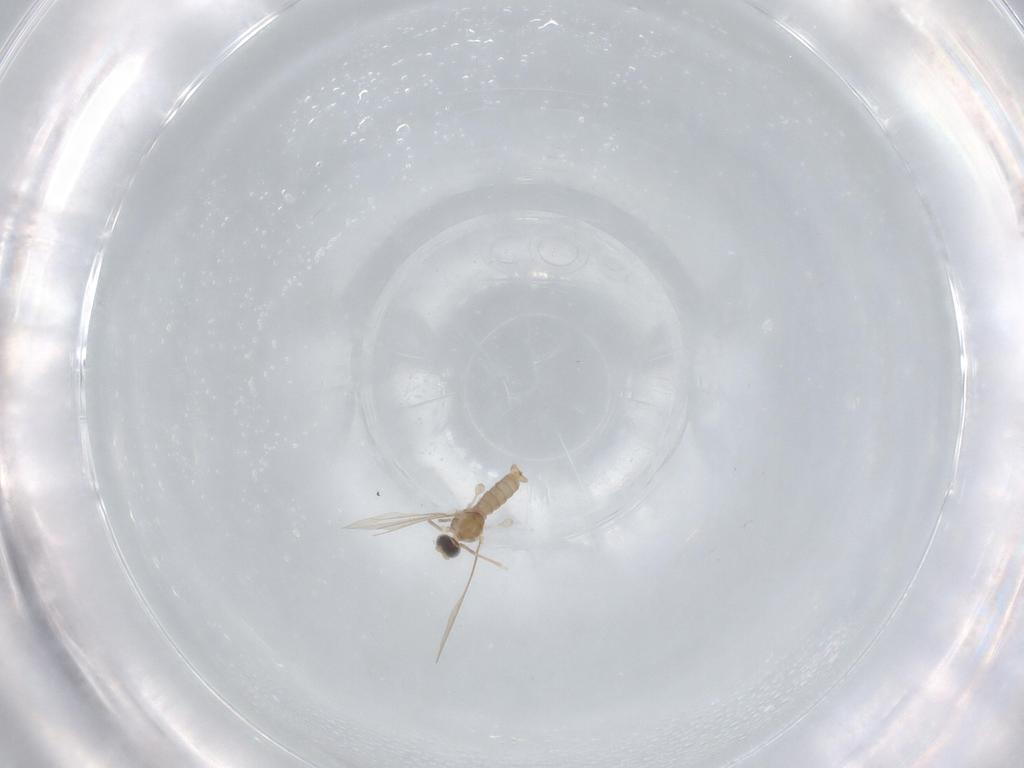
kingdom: Animalia
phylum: Arthropoda
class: Insecta
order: Diptera
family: Cecidomyiidae
